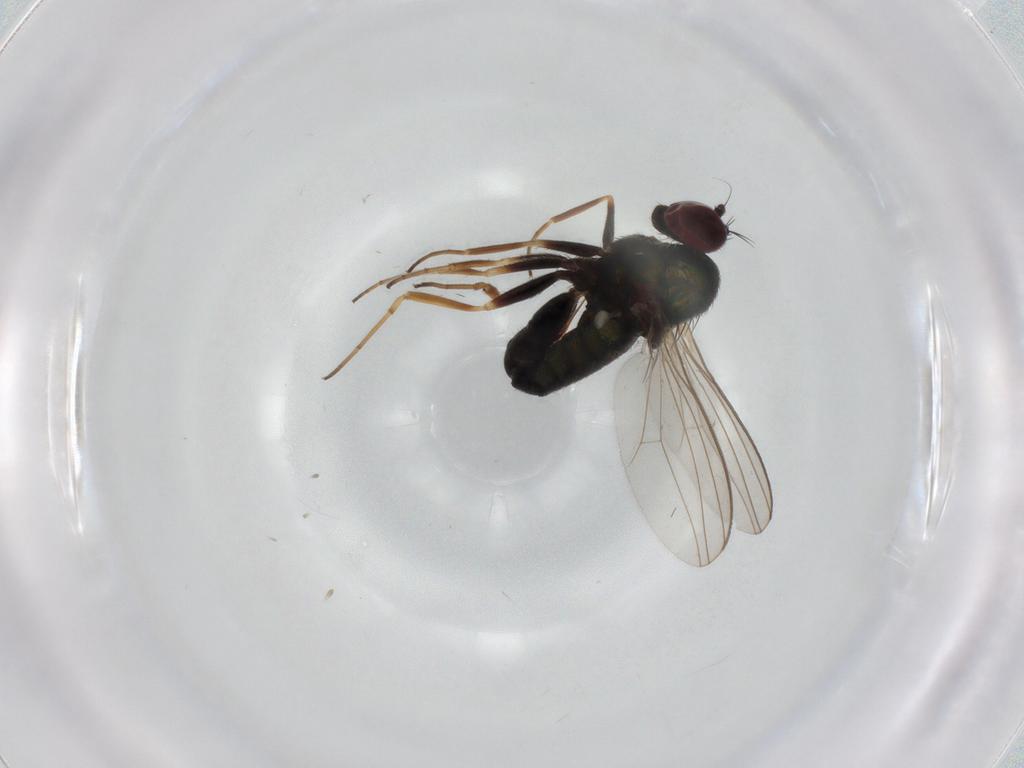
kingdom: Animalia
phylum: Arthropoda
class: Insecta
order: Diptera
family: Dolichopodidae
